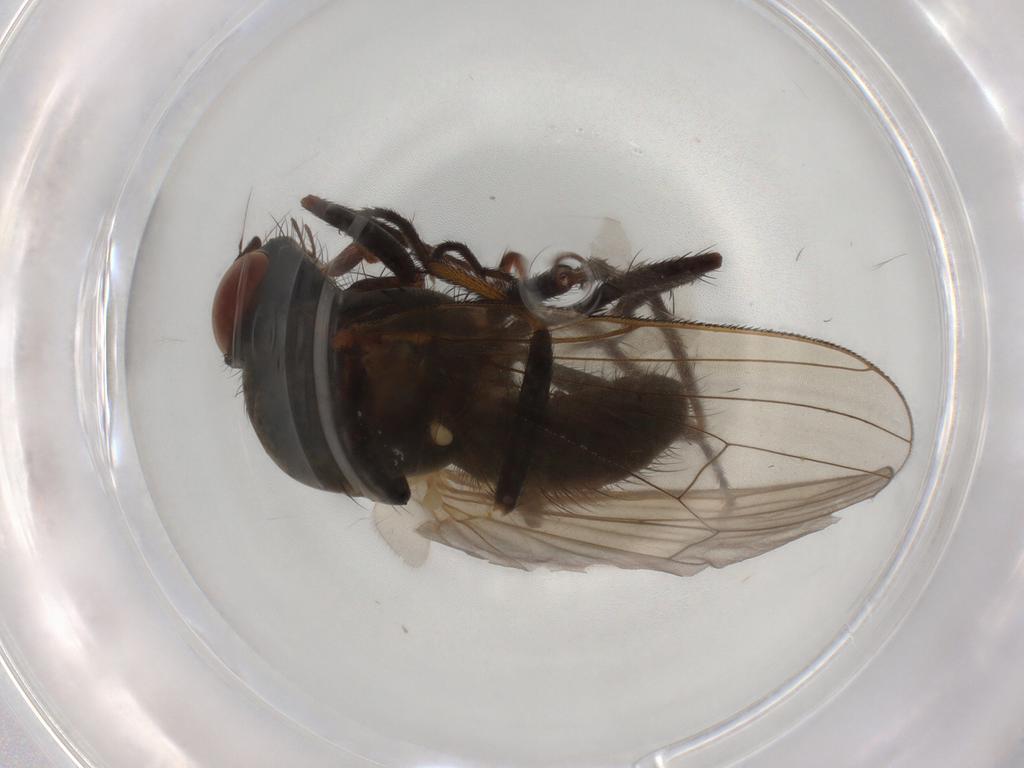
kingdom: Animalia
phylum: Arthropoda
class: Insecta
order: Diptera
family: Anthomyiidae
